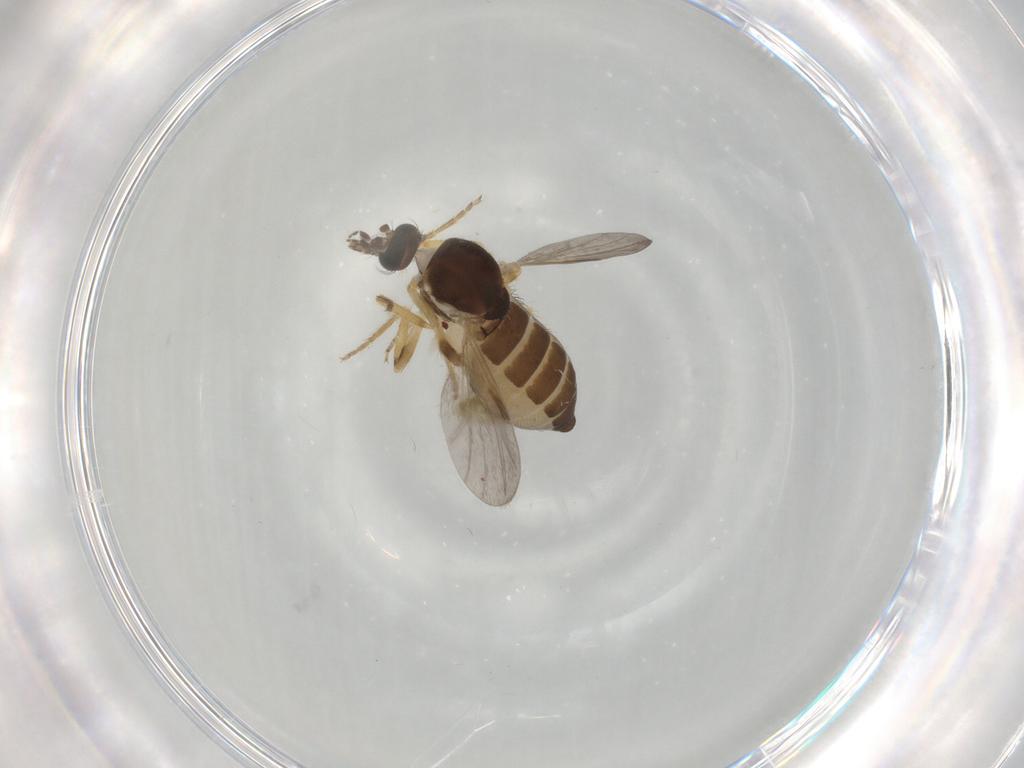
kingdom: Animalia
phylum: Arthropoda
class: Insecta
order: Diptera
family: Ceratopogonidae
